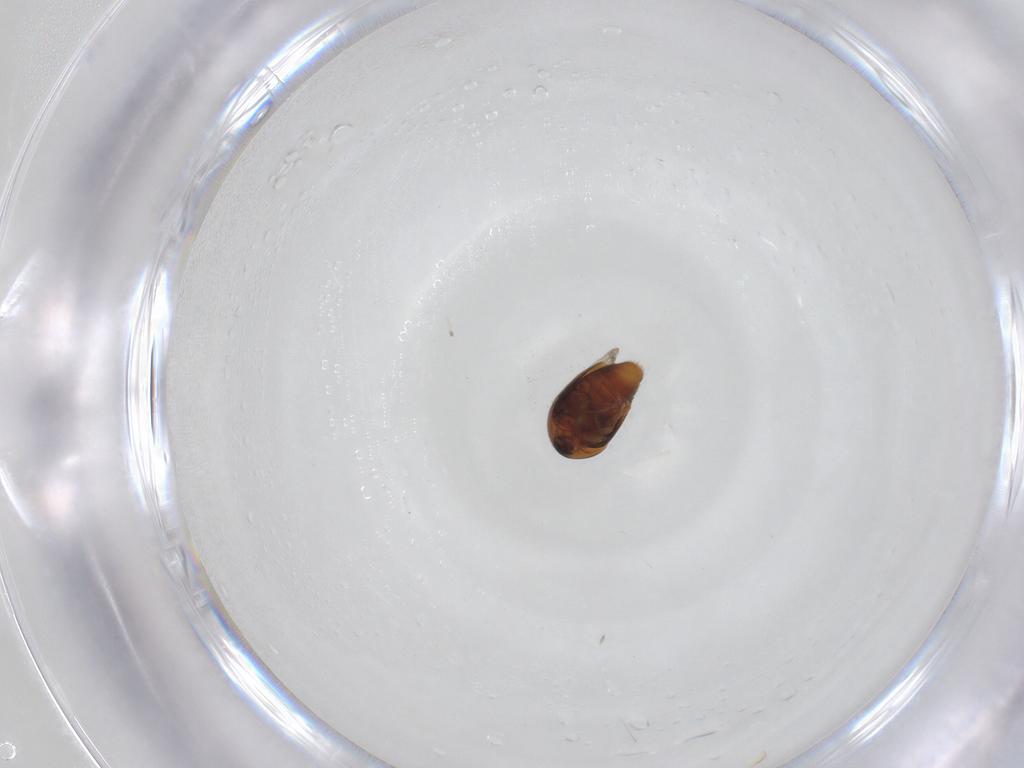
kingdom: Animalia
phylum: Arthropoda
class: Insecta
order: Coleoptera
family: Corylophidae
